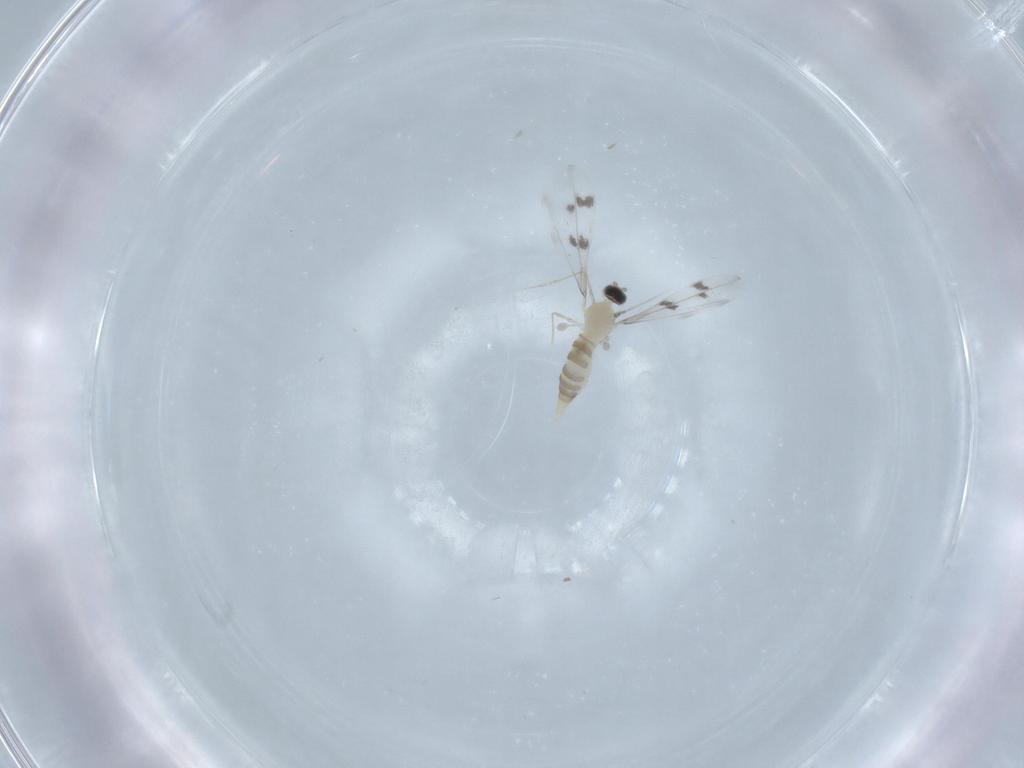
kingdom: Animalia
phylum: Arthropoda
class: Insecta
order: Diptera
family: Cecidomyiidae
